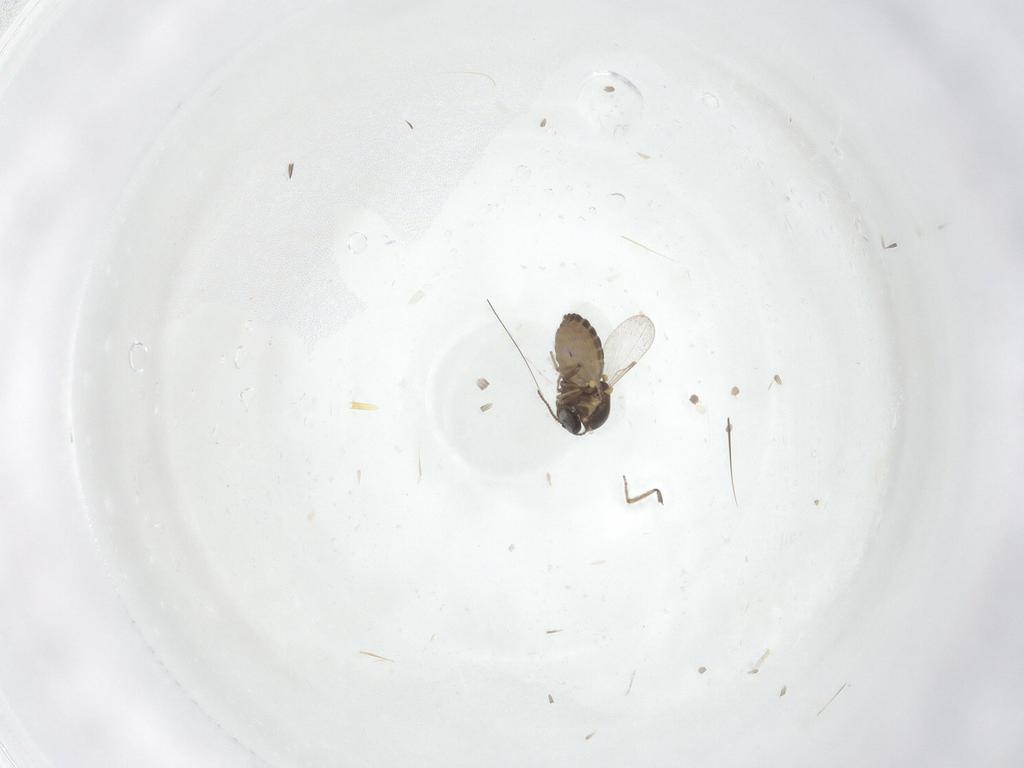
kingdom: Animalia
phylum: Arthropoda
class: Insecta
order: Diptera
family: Ceratopogonidae
